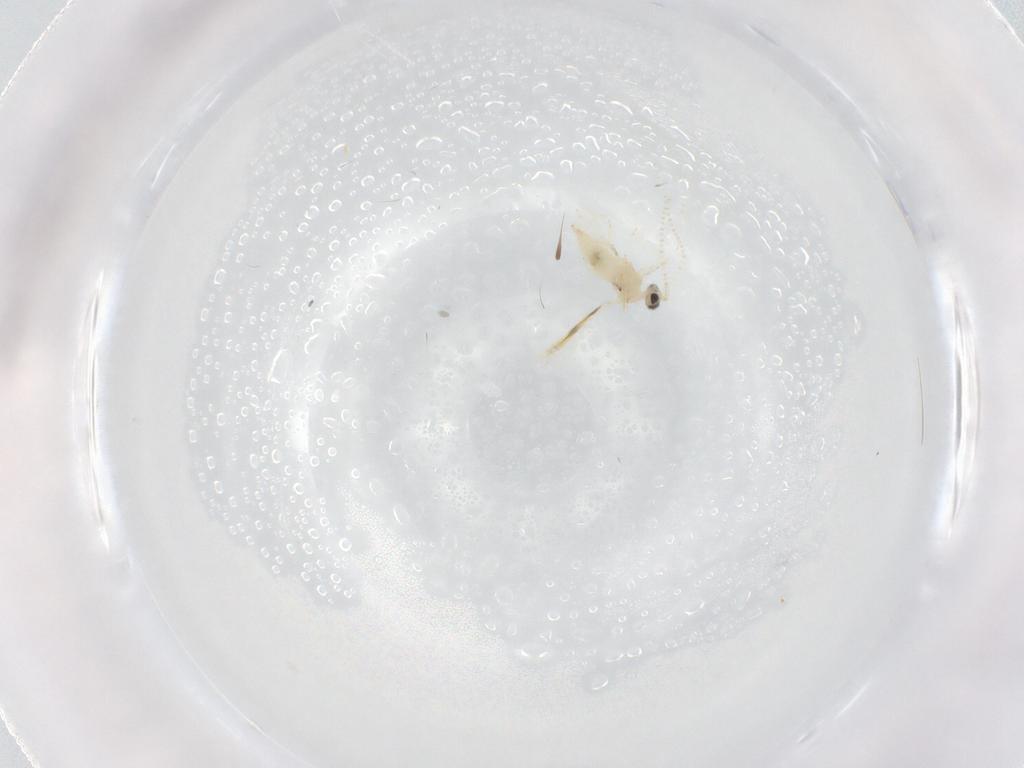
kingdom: Animalia
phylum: Arthropoda
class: Insecta
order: Diptera
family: Cecidomyiidae
